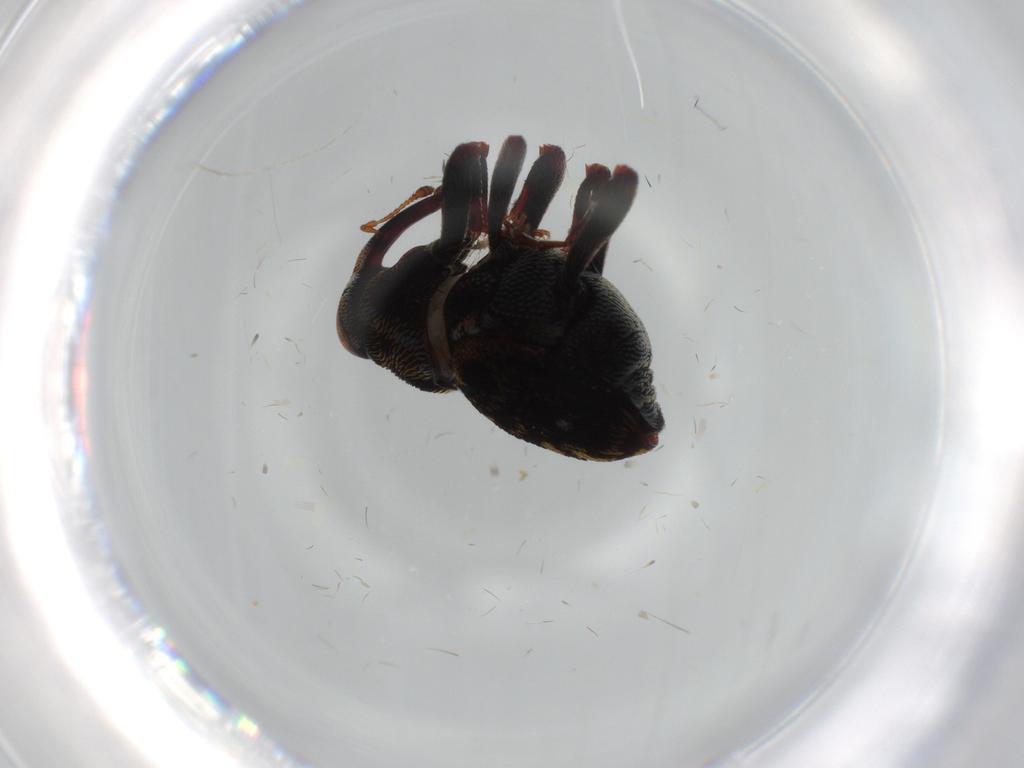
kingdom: Animalia
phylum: Arthropoda
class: Insecta
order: Coleoptera
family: Curculionidae
